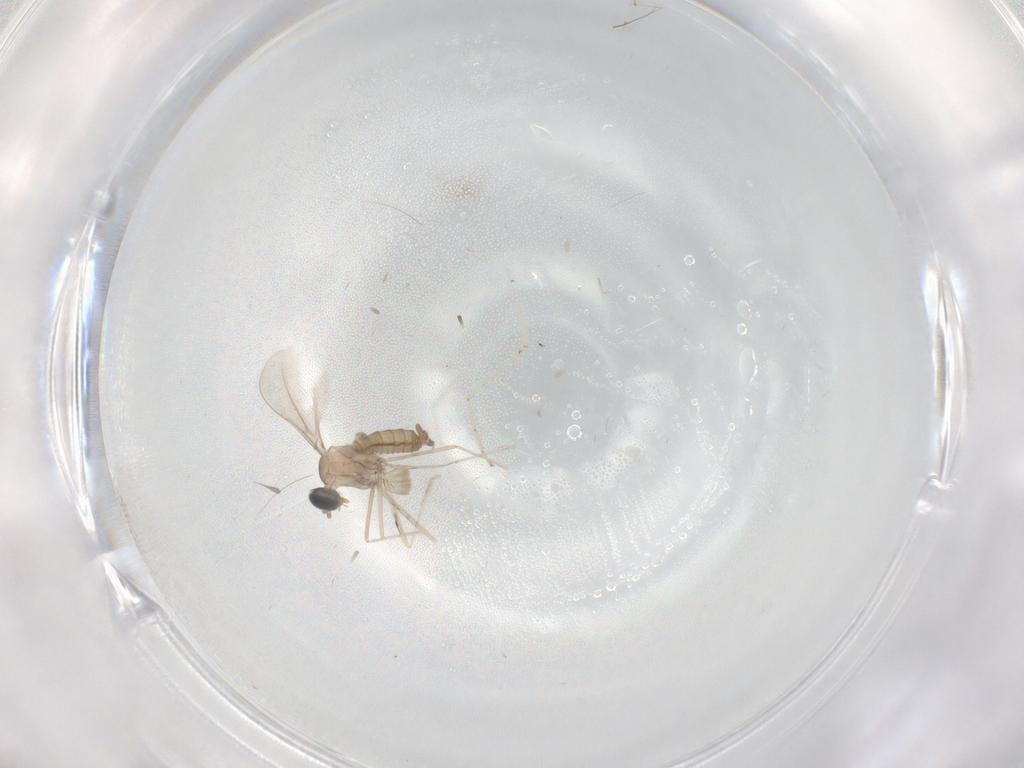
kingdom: Animalia
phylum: Arthropoda
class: Insecta
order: Diptera
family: Cecidomyiidae
